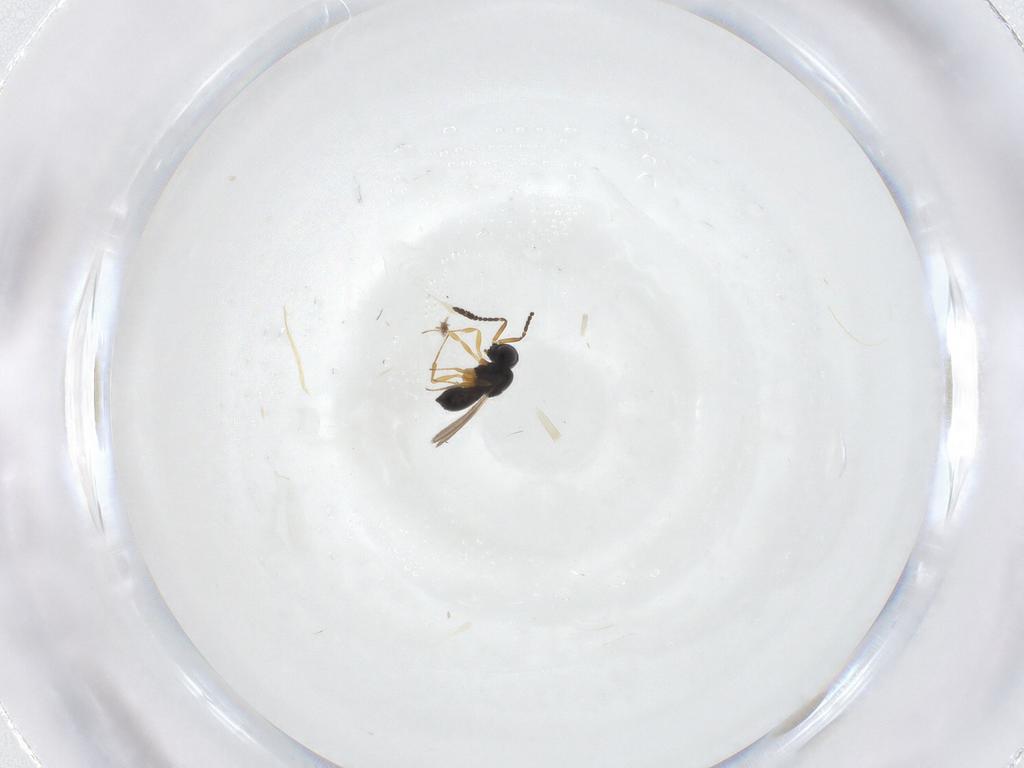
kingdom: Animalia
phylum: Arthropoda
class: Insecta
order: Hymenoptera
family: Scelionidae
